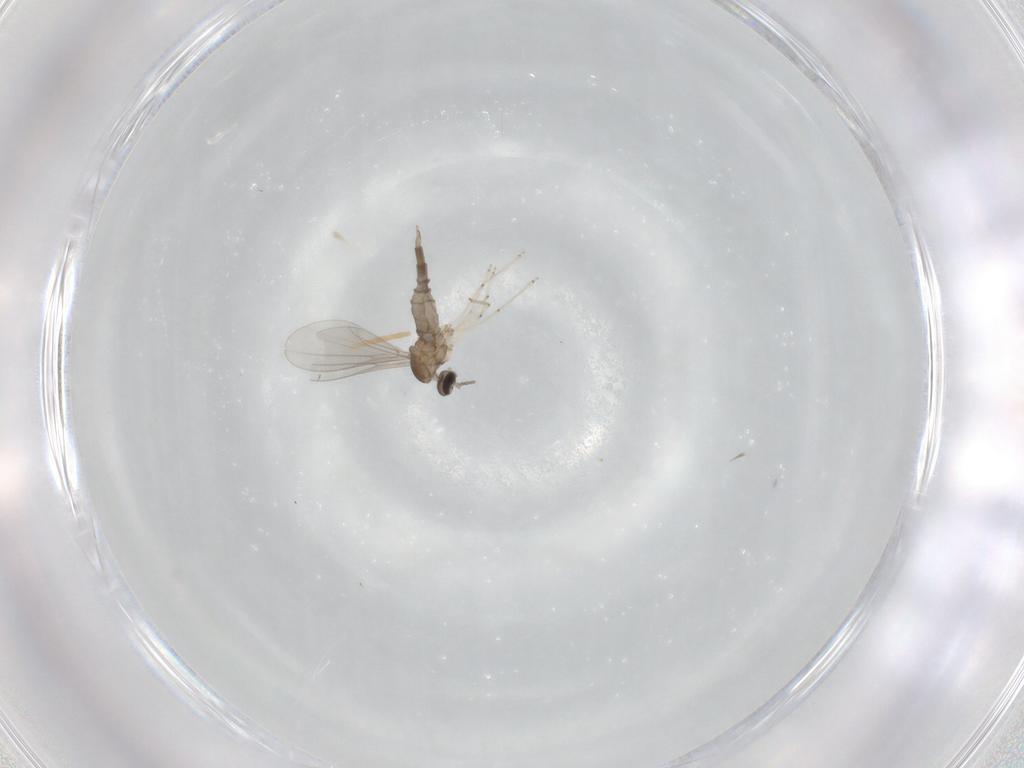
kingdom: Animalia
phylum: Arthropoda
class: Insecta
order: Diptera
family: Cecidomyiidae
